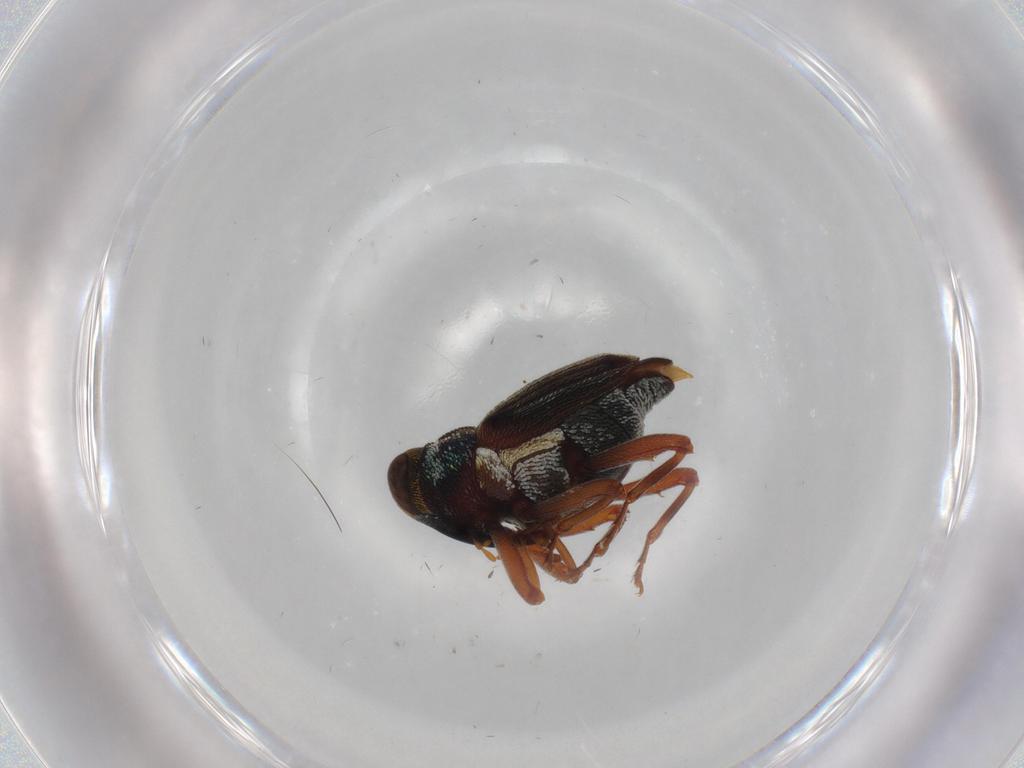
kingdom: Animalia
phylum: Arthropoda
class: Insecta
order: Coleoptera
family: Curculionidae
